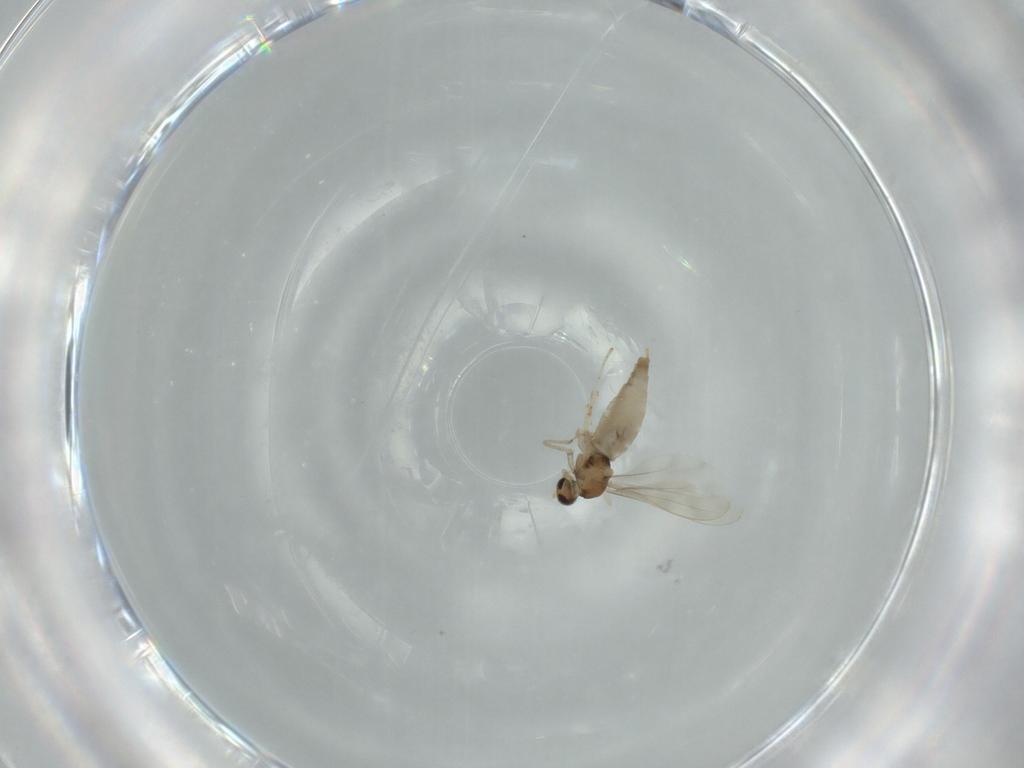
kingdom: Animalia
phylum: Arthropoda
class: Insecta
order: Diptera
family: Cecidomyiidae
